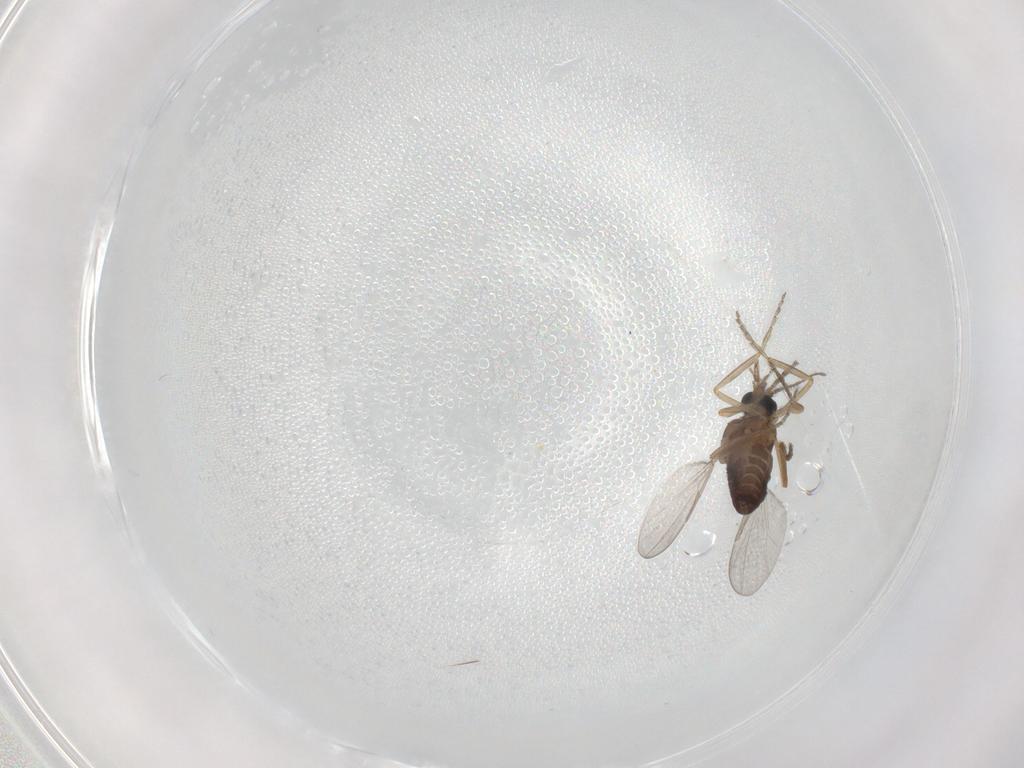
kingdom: Animalia
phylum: Arthropoda
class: Insecta
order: Diptera
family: Ceratopogonidae
